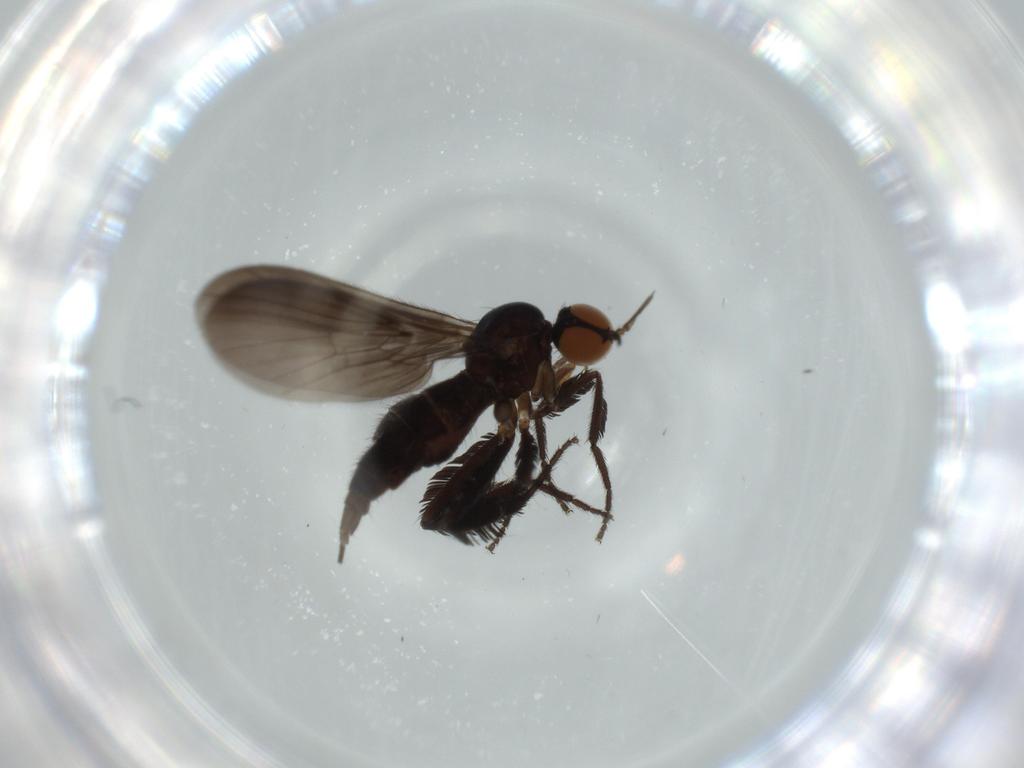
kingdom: Animalia
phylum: Arthropoda
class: Insecta
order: Diptera
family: Empididae
